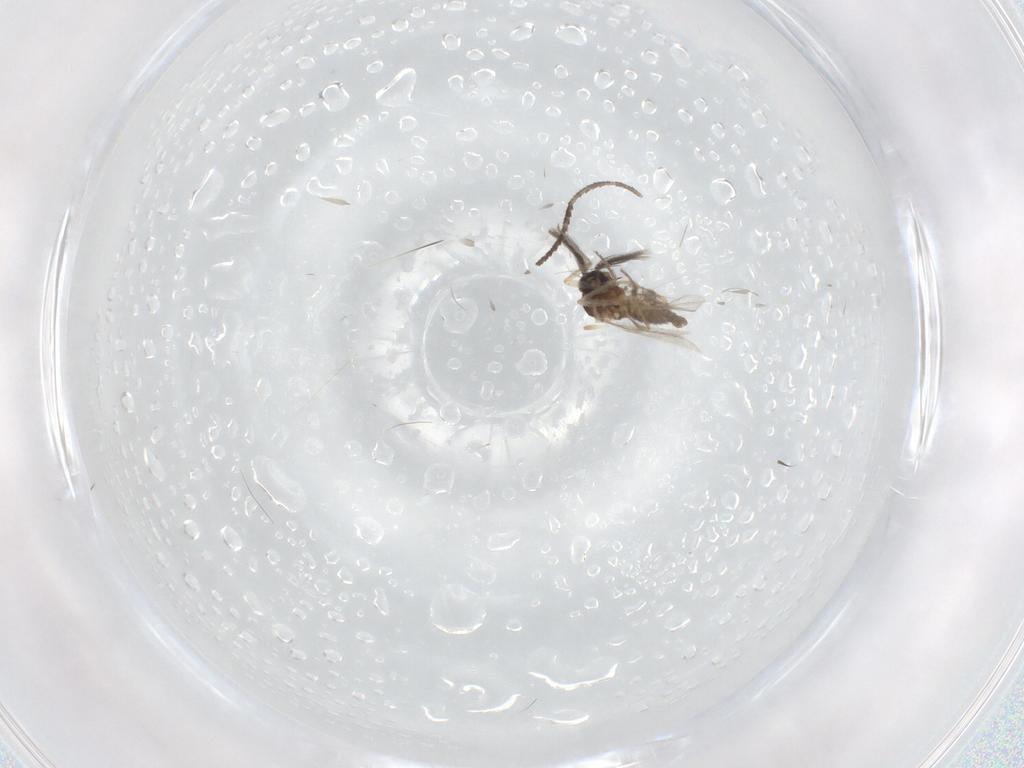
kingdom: Animalia
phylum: Arthropoda
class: Insecta
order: Diptera
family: Ceratopogonidae
